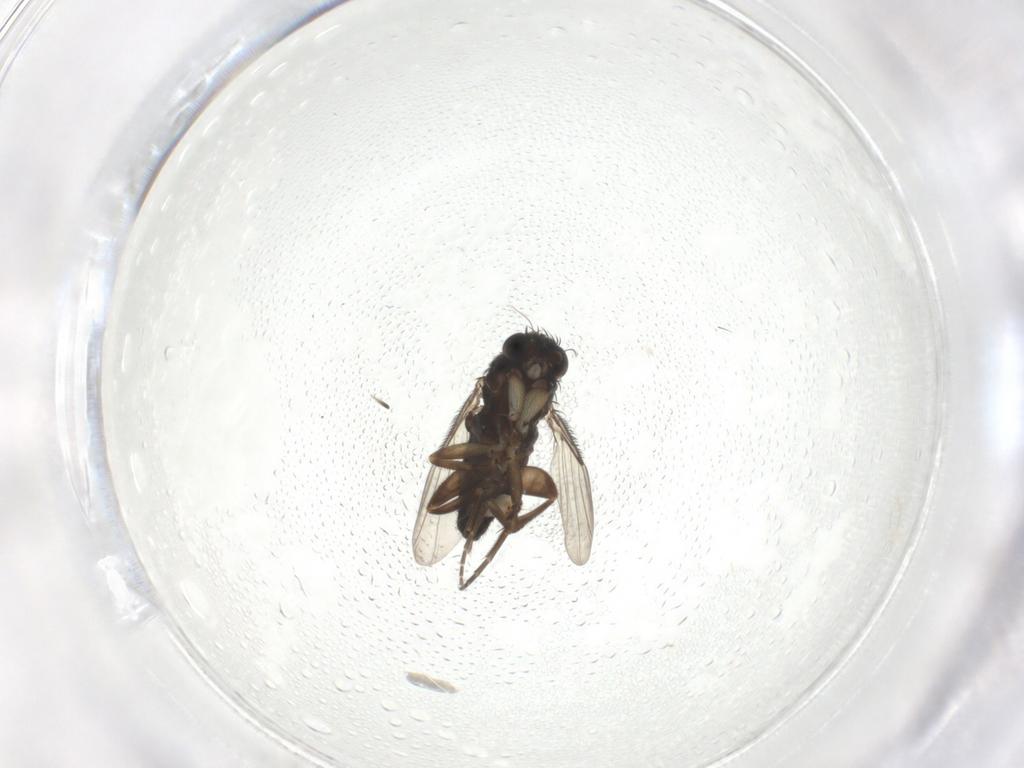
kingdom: Animalia
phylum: Arthropoda
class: Insecta
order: Diptera
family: Phoridae
